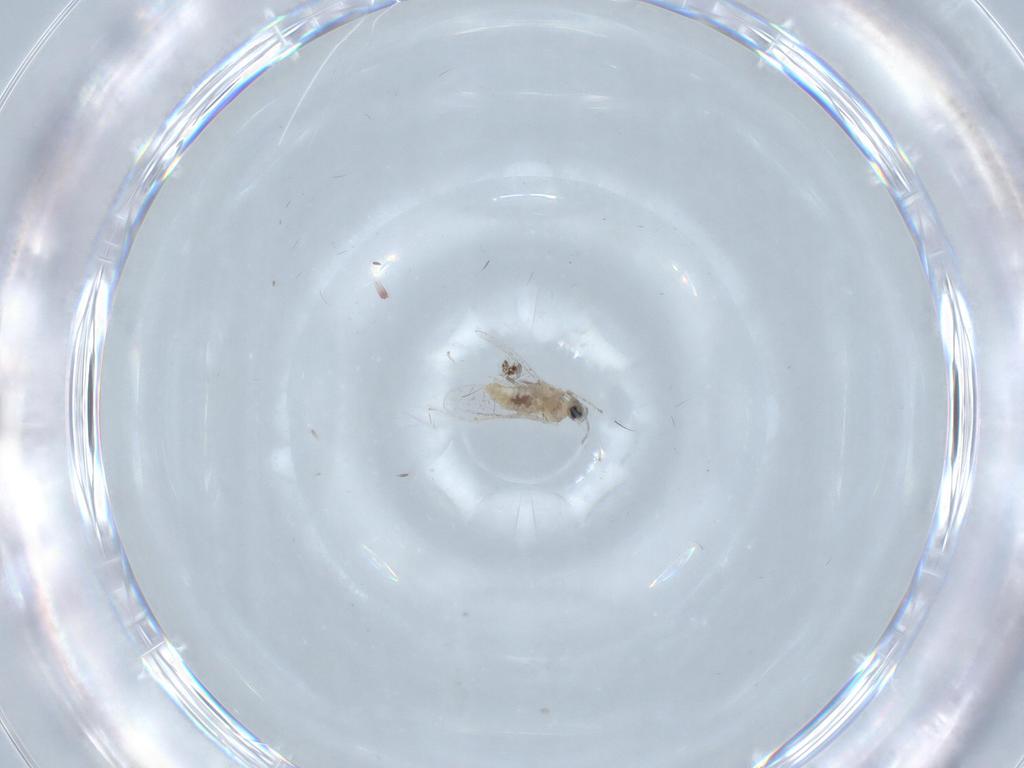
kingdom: Animalia
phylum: Arthropoda
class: Insecta
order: Diptera
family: Cecidomyiidae
